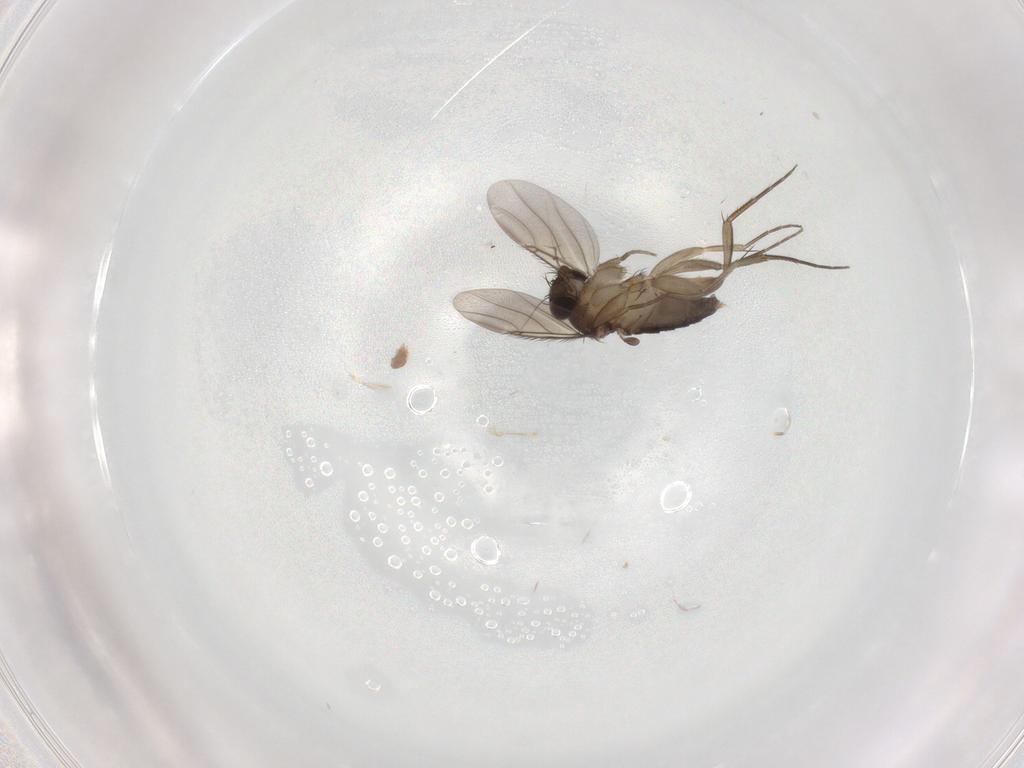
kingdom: Animalia
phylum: Arthropoda
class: Insecta
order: Diptera
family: Phoridae
